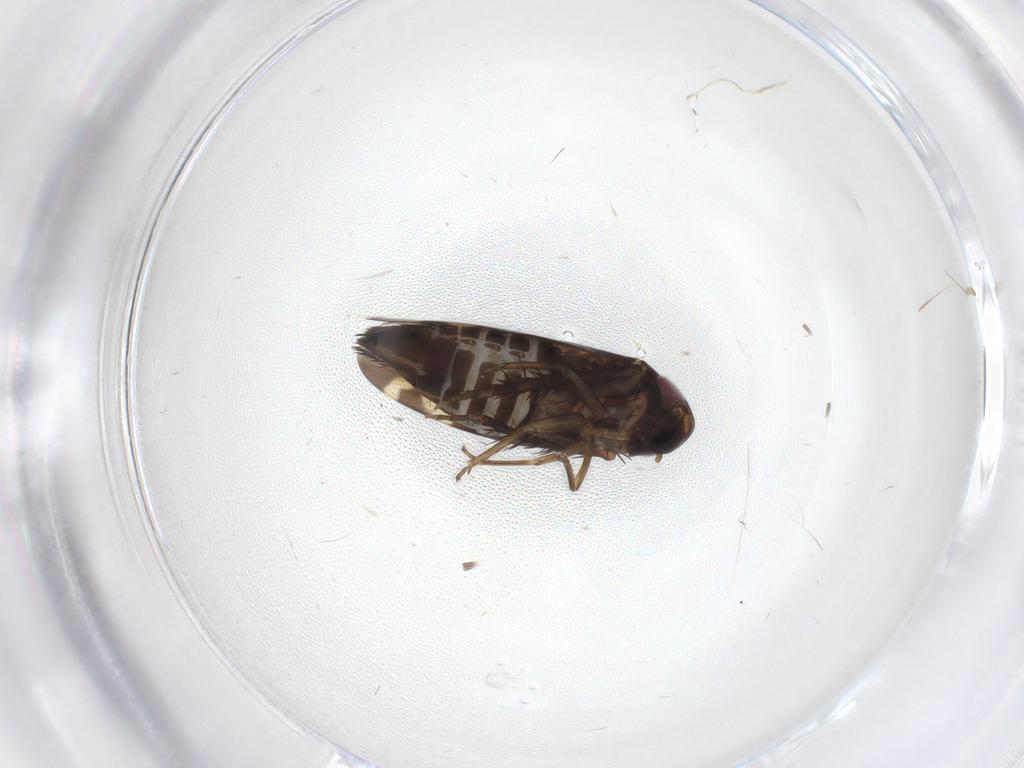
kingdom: Animalia
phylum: Arthropoda
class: Insecta
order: Hemiptera
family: Cicadellidae
